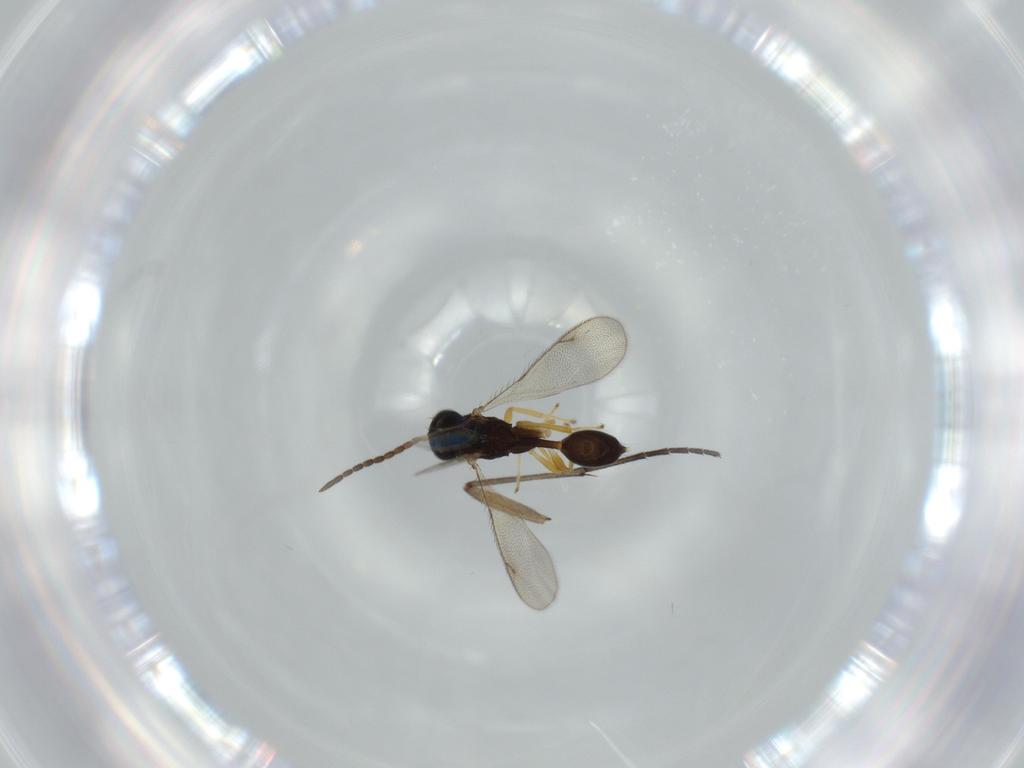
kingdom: Animalia
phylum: Arthropoda
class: Insecta
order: Hymenoptera
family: Diparidae
